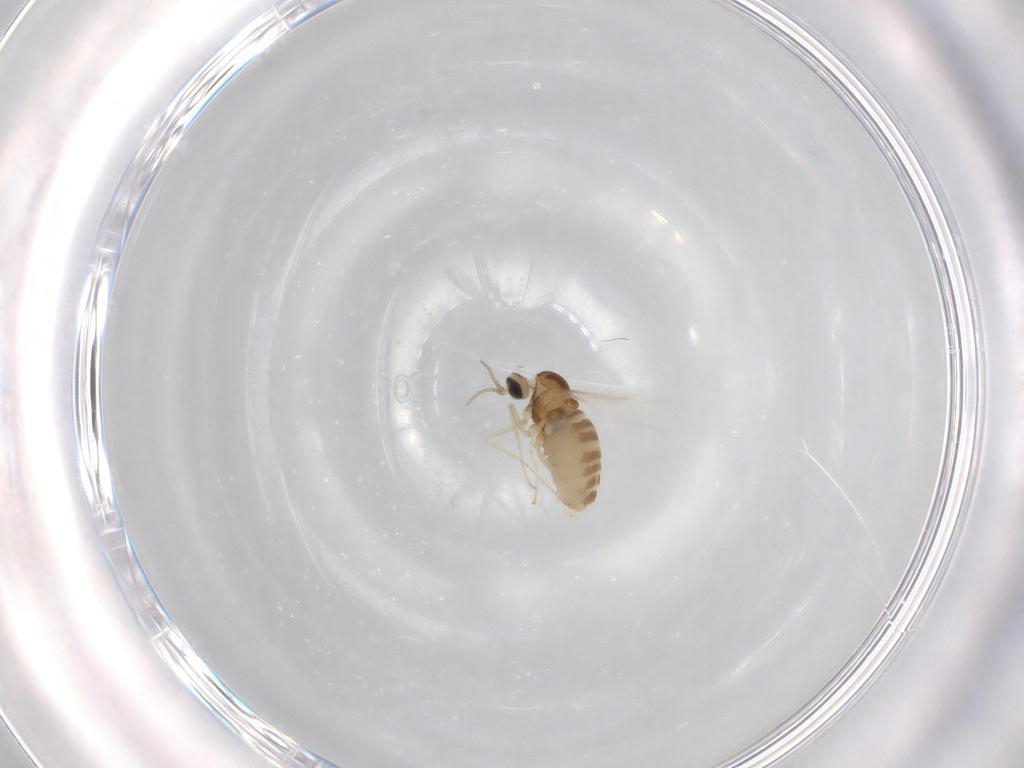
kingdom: Animalia
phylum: Arthropoda
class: Insecta
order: Diptera
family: Cecidomyiidae
